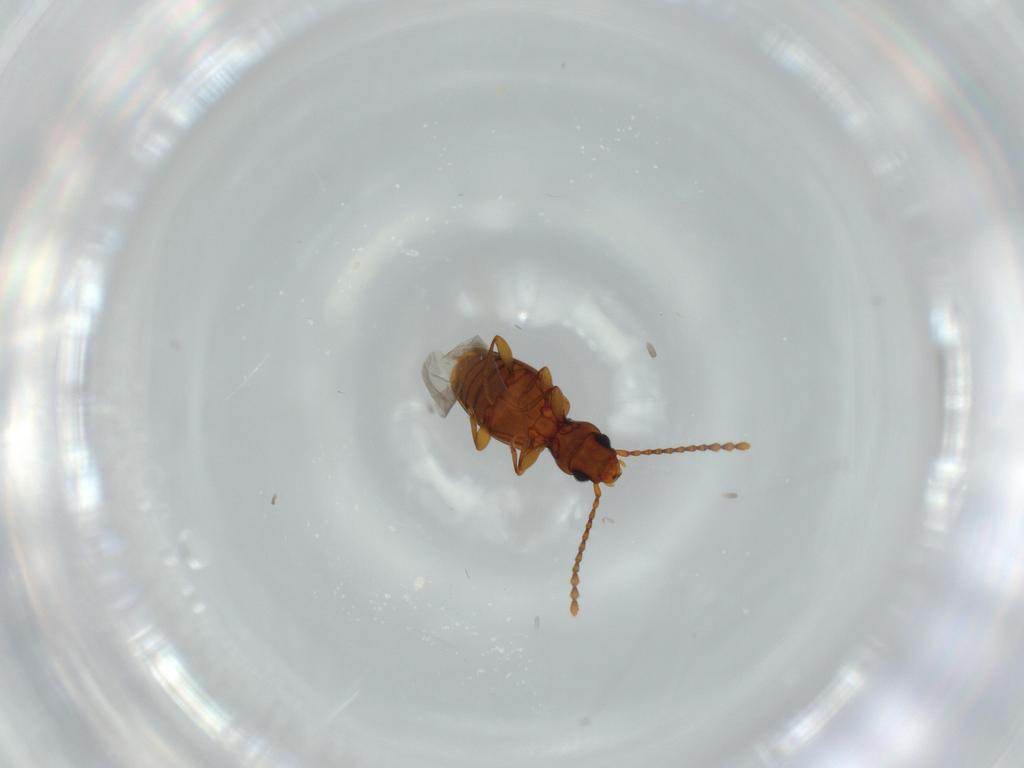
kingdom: Animalia
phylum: Arthropoda
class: Insecta
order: Coleoptera
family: Laemophloeidae
